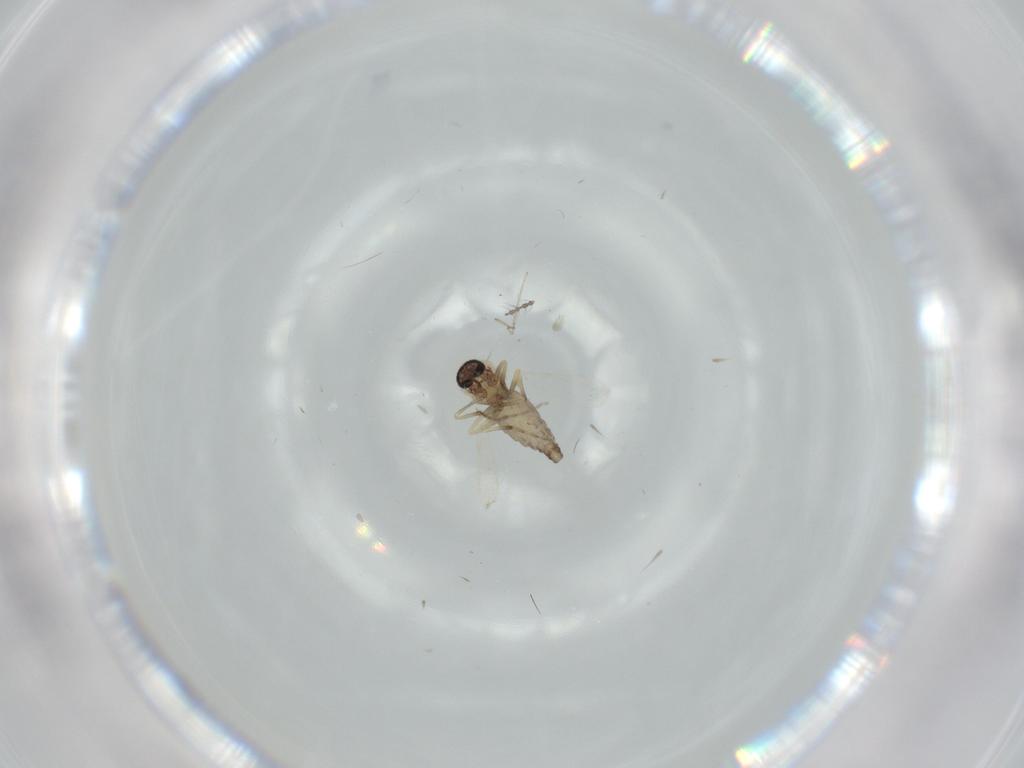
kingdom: Animalia
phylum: Arthropoda
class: Insecta
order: Diptera
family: Cecidomyiidae
